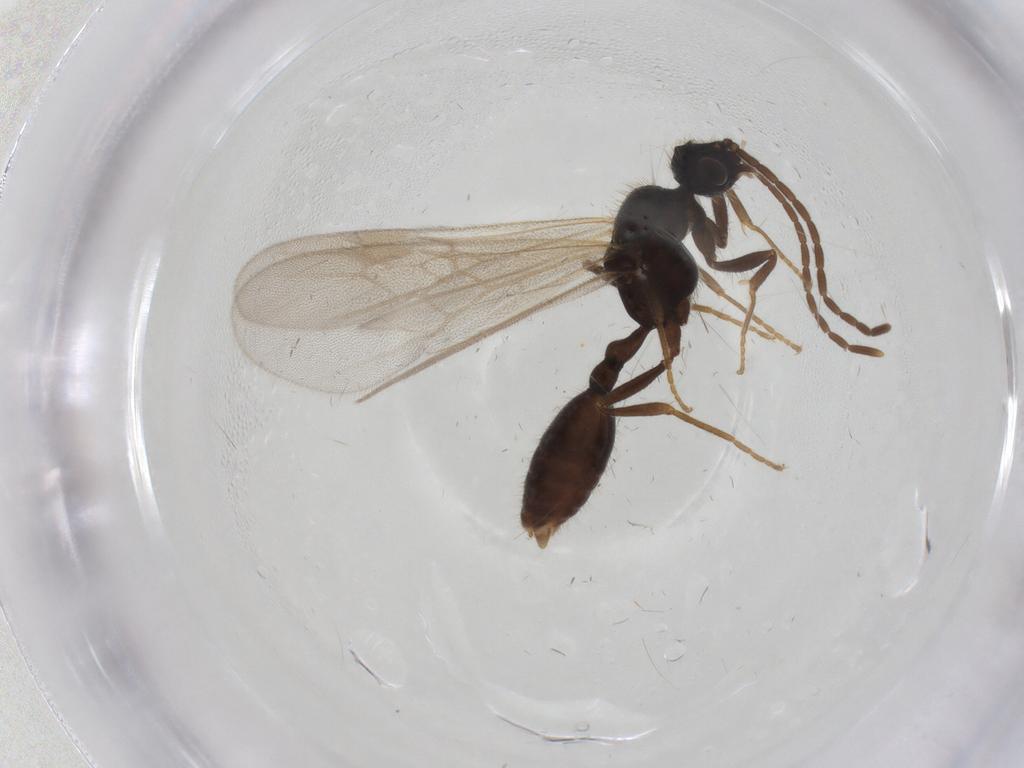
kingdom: Animalia
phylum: Arthropoda
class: Insecta
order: Hymenoptera
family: Formicidae
